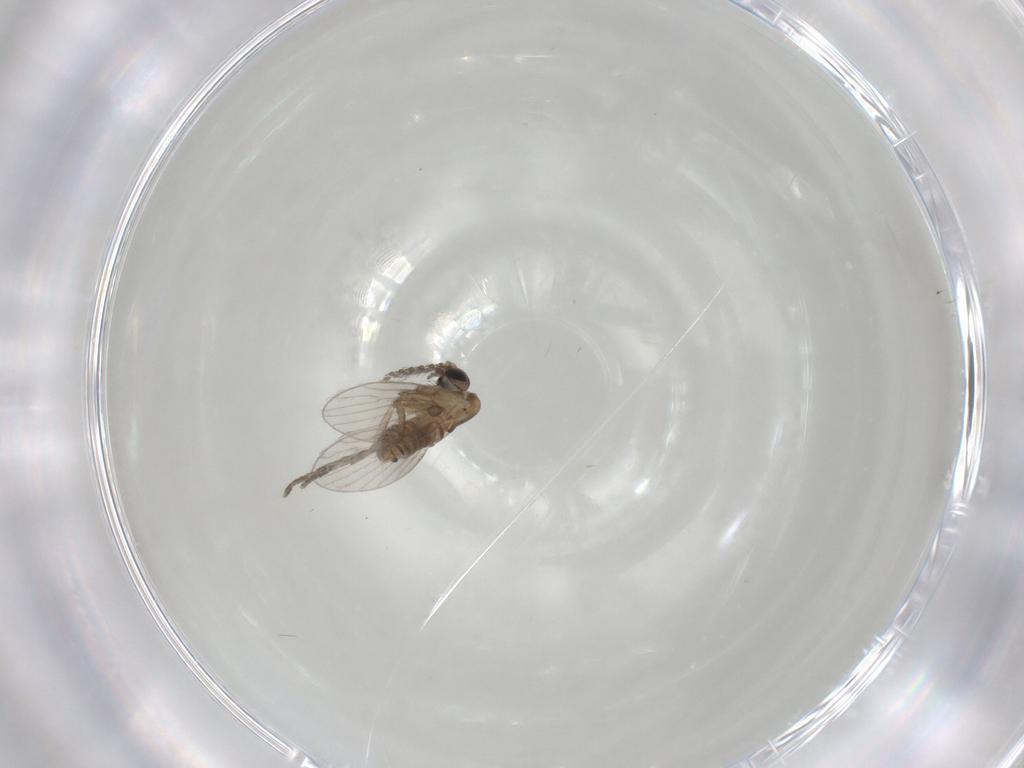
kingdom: Animalia
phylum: Arthropoda
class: Insecta
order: Diptera
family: Psychodidae
